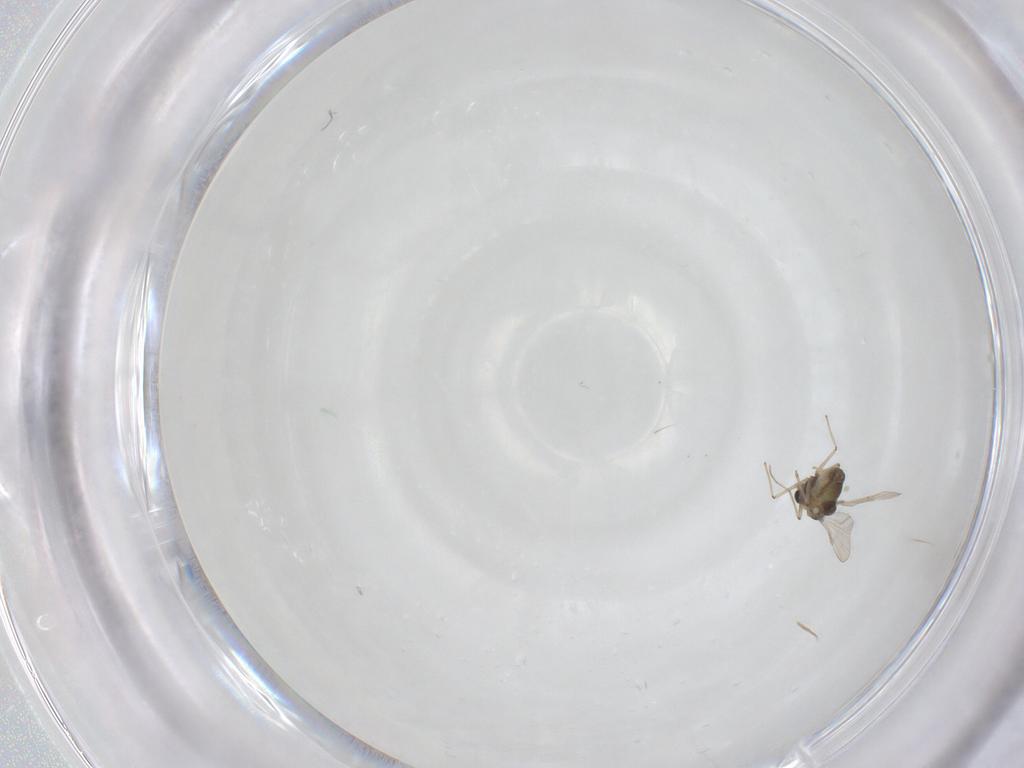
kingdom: Animalia
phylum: Arthropoda
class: Insecta
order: Diptera
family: Chironomidae
